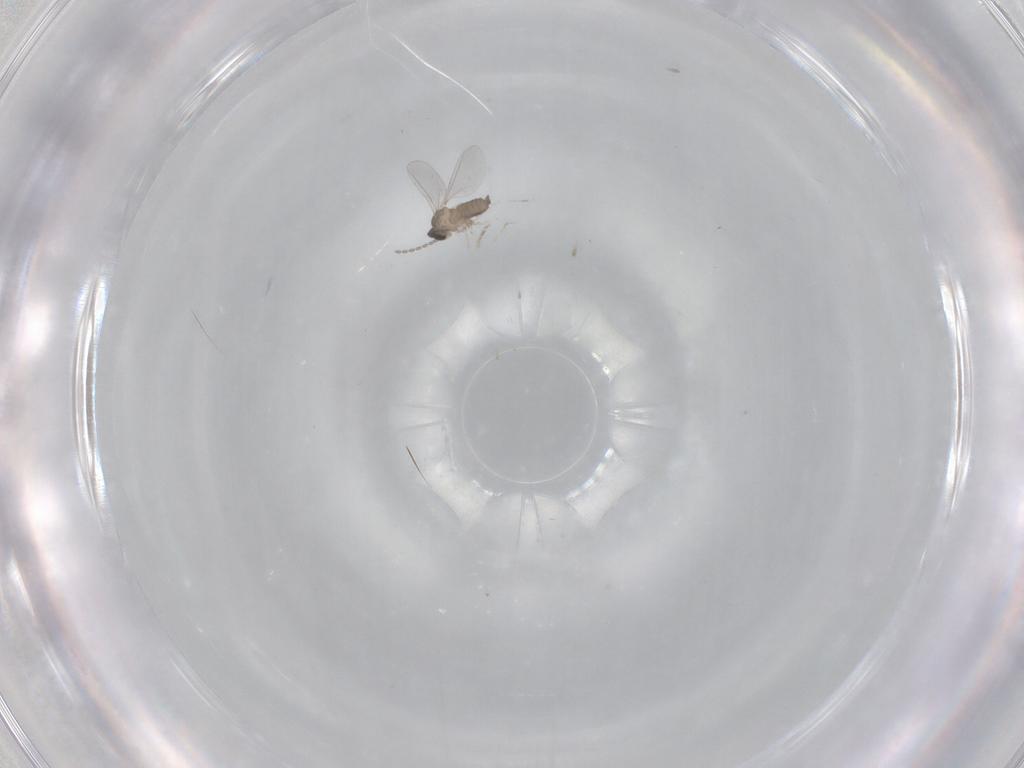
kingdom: Animalia
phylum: Arthropoda
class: Insecta
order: Diptera
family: Cecidomyiidae
